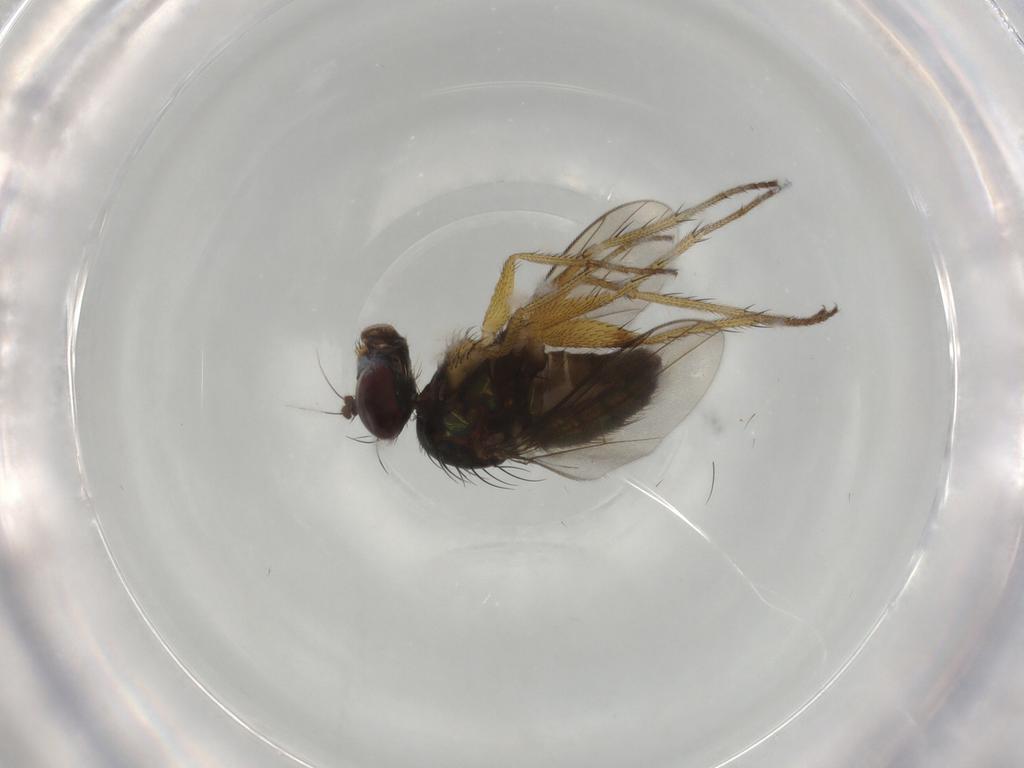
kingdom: Animalia
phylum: Arthropoda
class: Insecta
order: Diptera
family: Dolichopodidae
